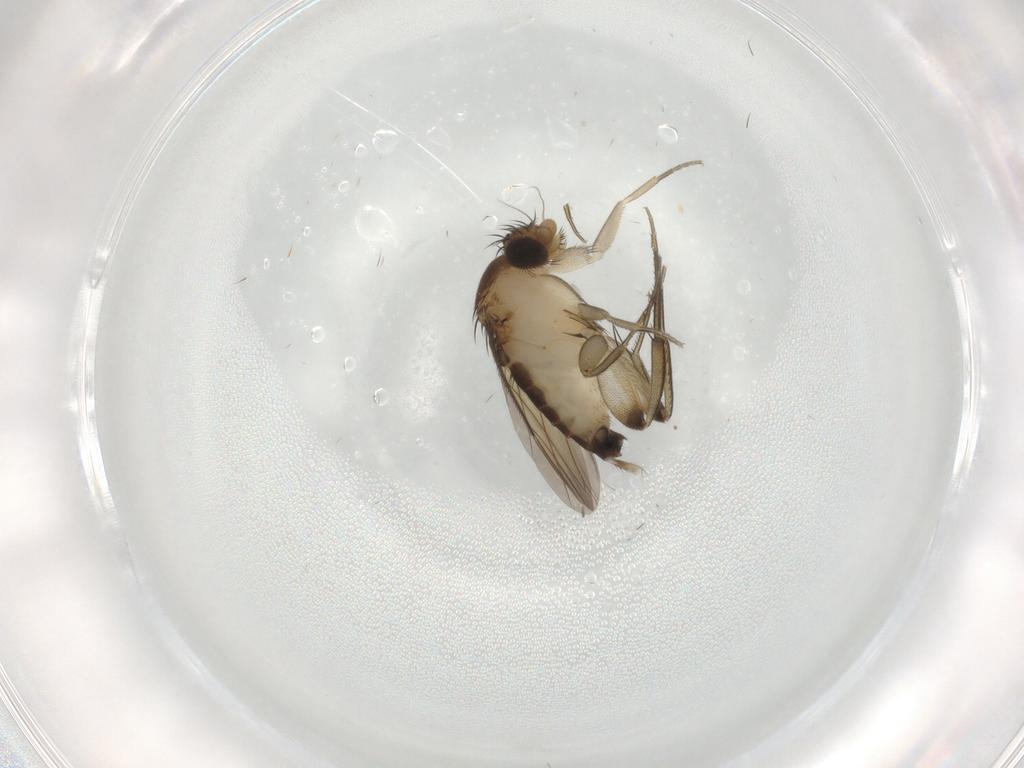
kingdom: Animalia
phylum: Arthropoda
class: Insecta
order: Diptera
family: Phoridae
